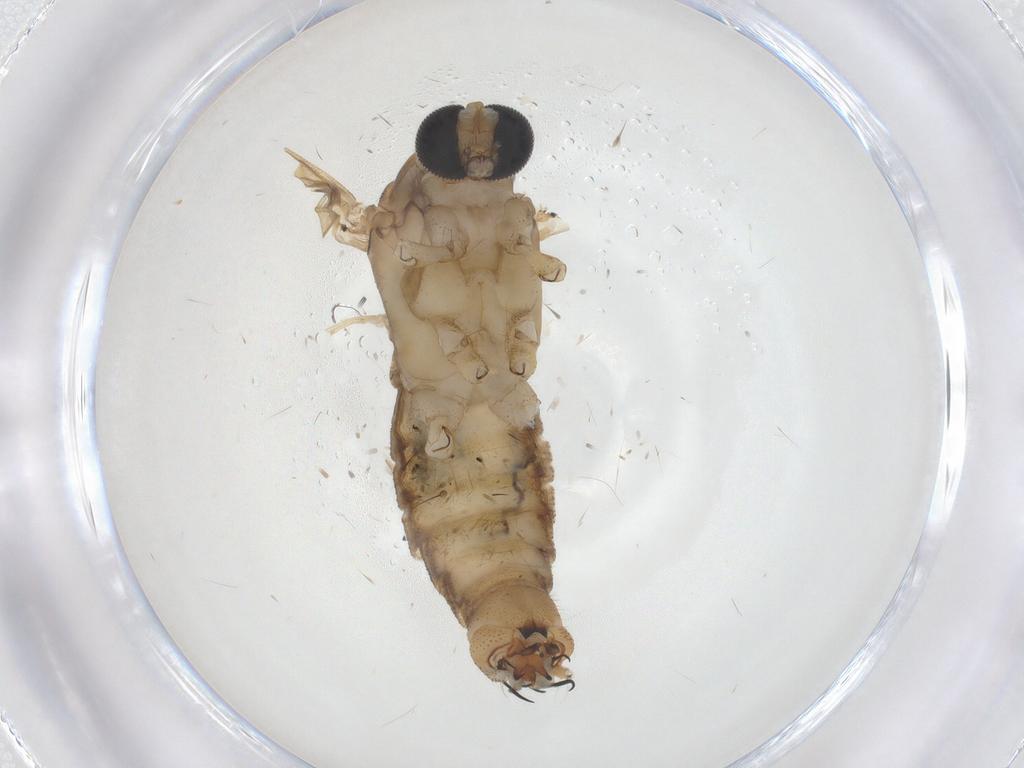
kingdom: Animalia
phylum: Arthropoda
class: Insecta
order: Diptera
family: Limoniidae
